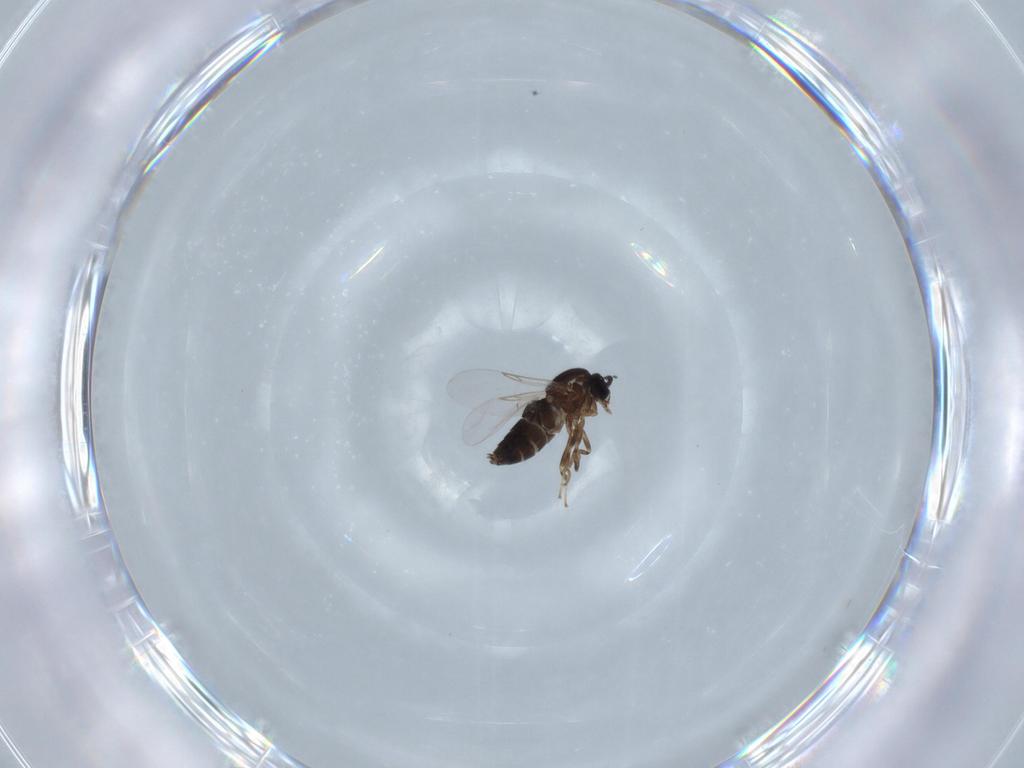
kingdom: Animalia
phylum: Arthropoda
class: Insecta
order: Diptera
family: Scatopsidae
